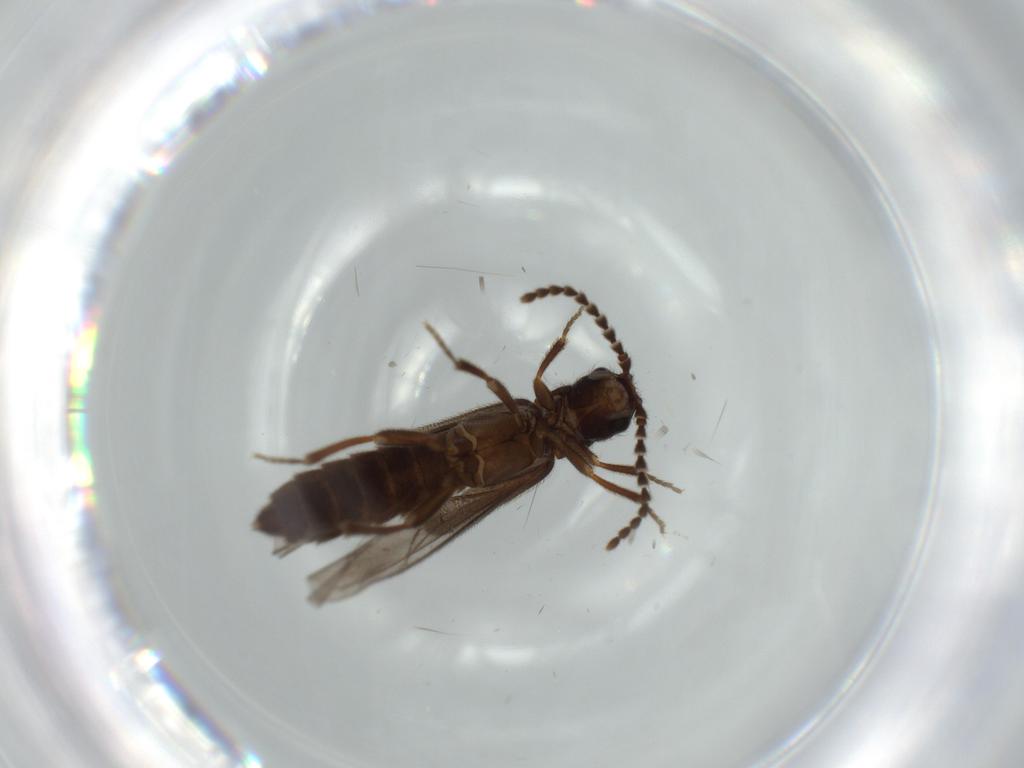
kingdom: Animalia
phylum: Arthropoda
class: Insecta
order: Coleoptera
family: Omethidae
